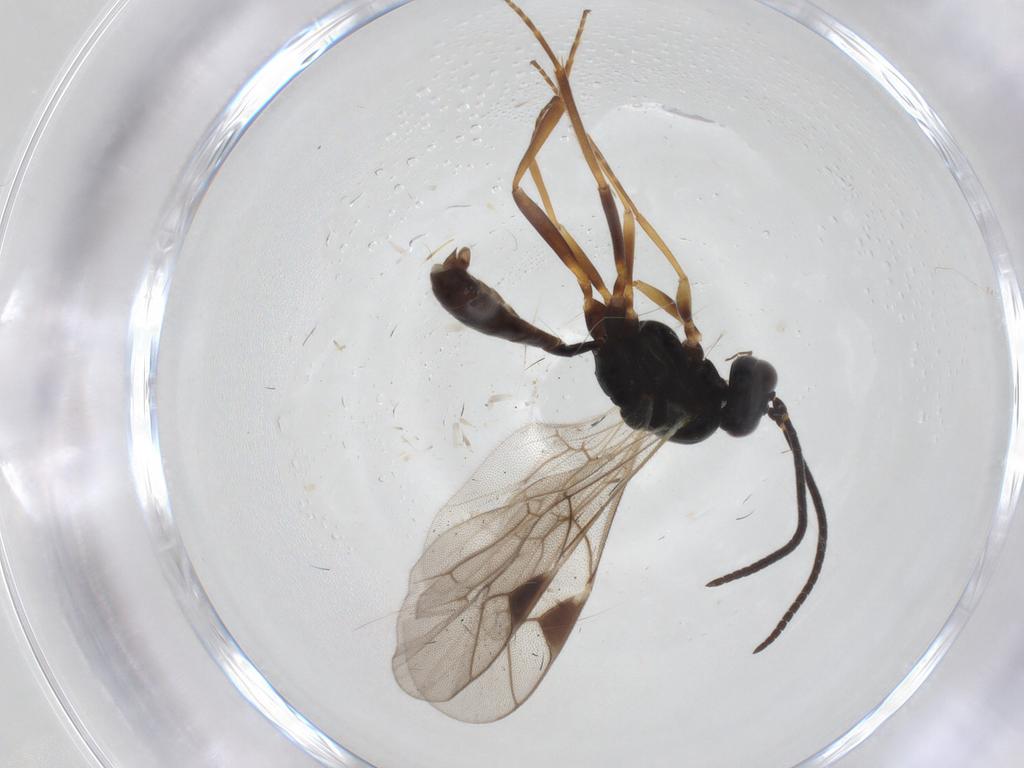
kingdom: Animalia
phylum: Arthropoda
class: Insecta
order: Hymenoptera
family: Ichneumonidae
